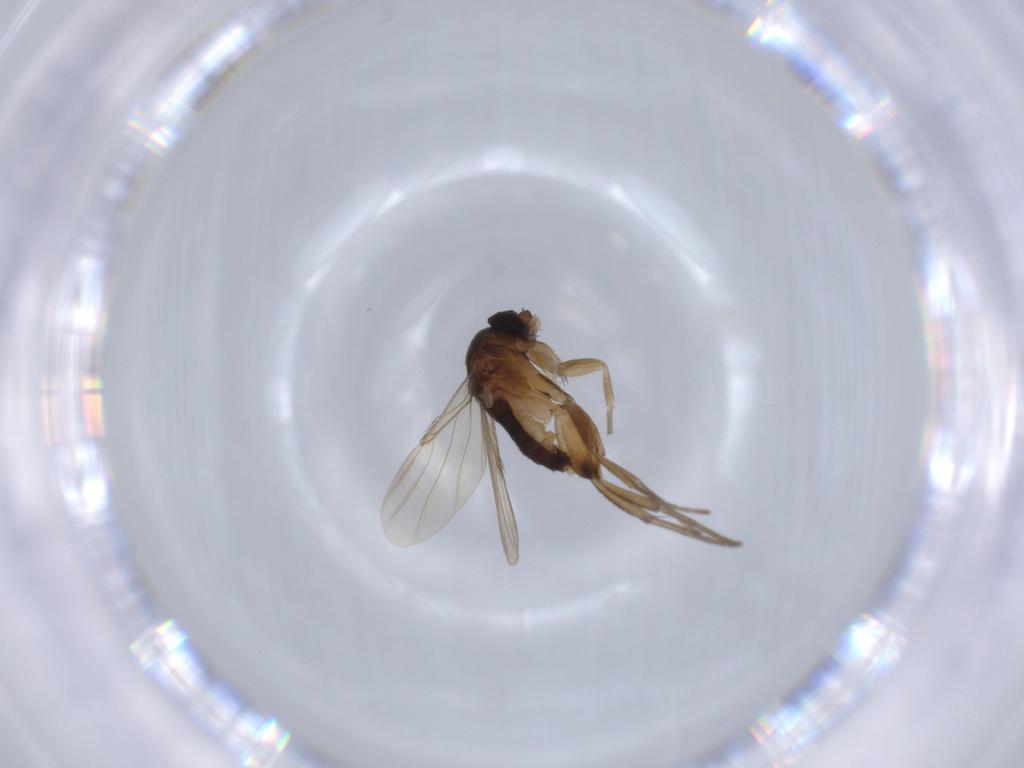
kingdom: Animalia
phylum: Arthropoda
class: Insecta
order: Diptera
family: Phoridae
